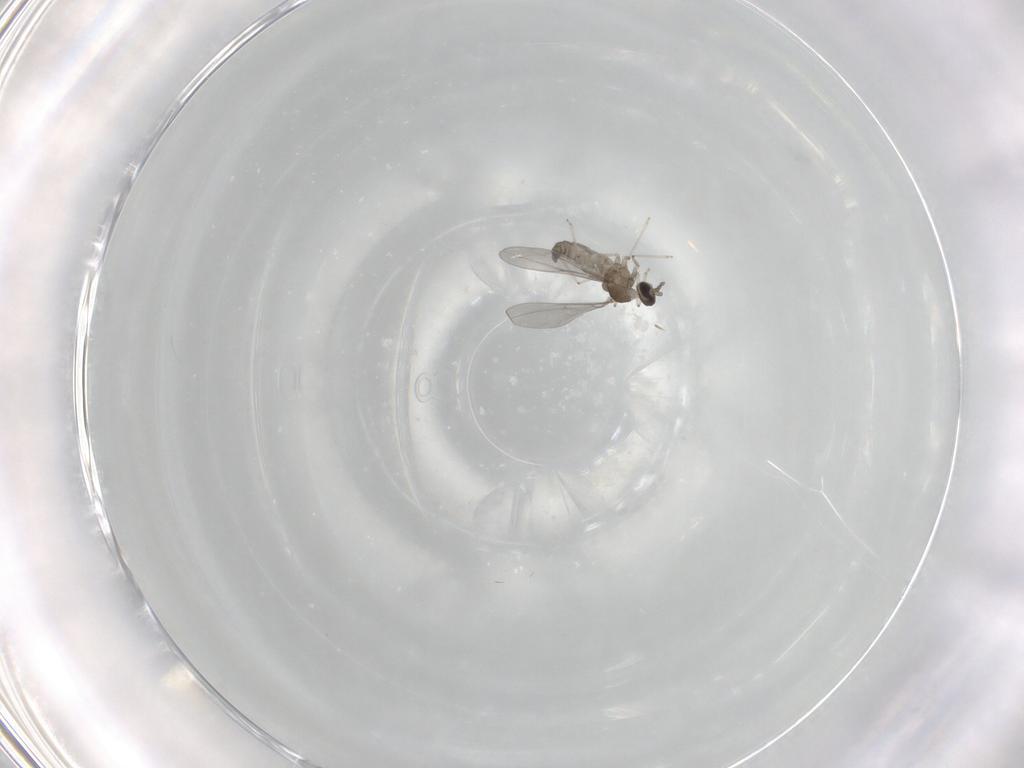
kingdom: Animalia
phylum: Arthropoda
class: Insecta
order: Diptera
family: Cecidomyiidae
